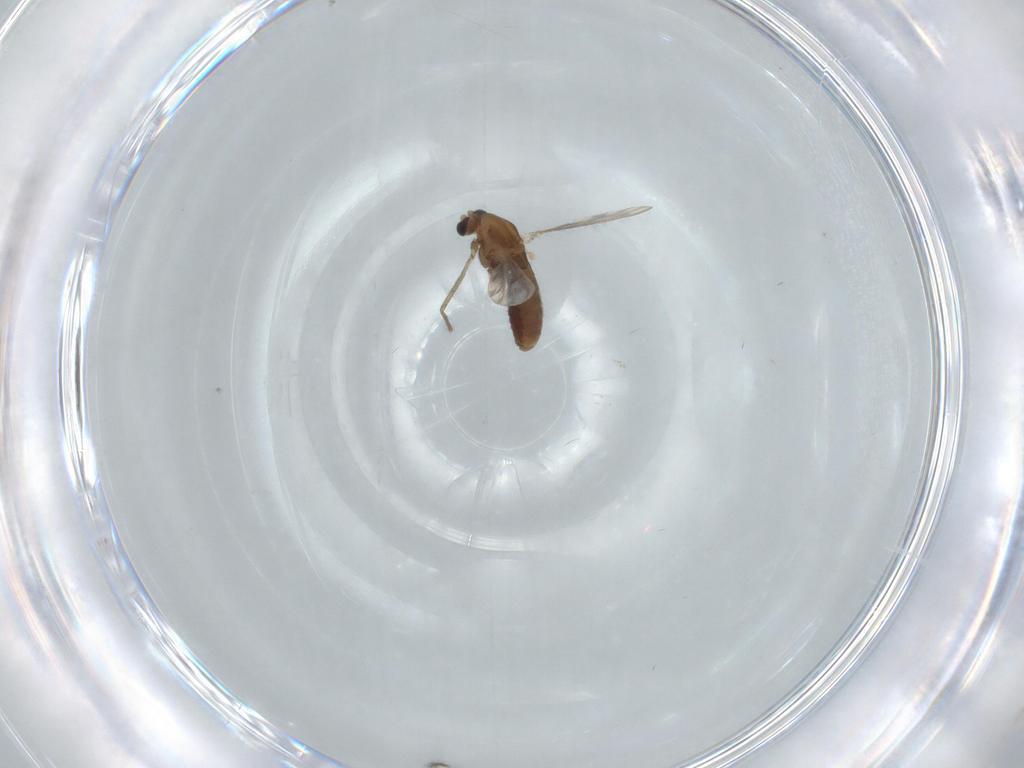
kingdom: Animalia
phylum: Arthropoda
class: Insecta
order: Diptera
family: Chironomidae
